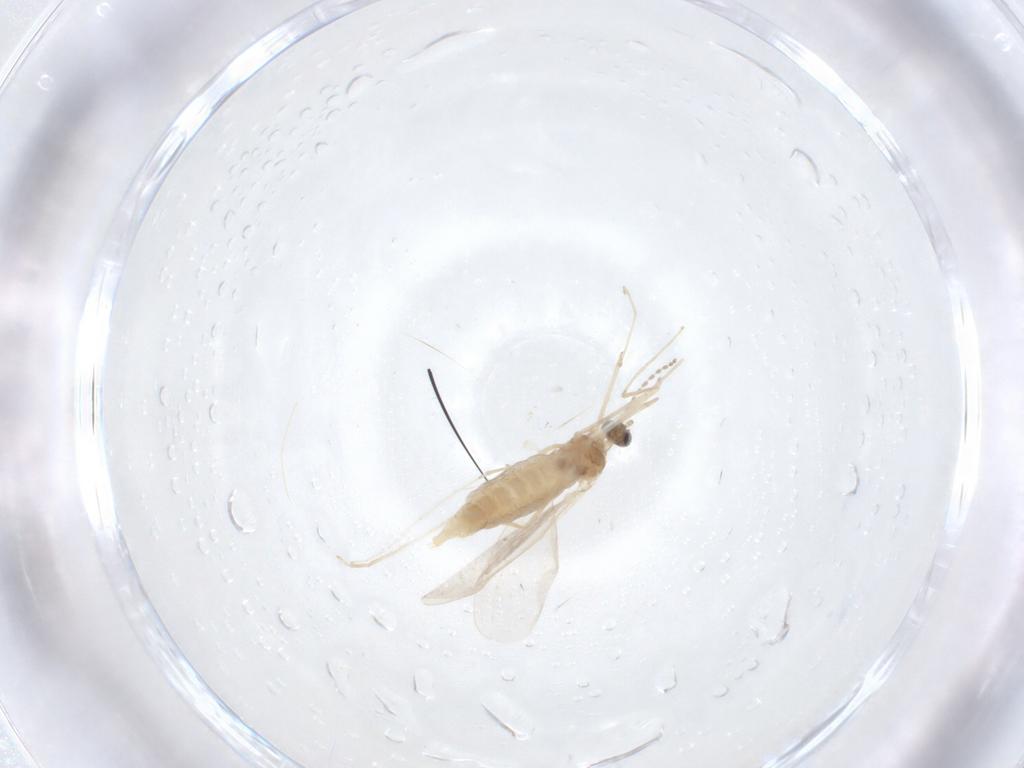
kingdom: Animalia
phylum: Arthropoda
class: Insecta
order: Diptera
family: Cecidomyiidae
